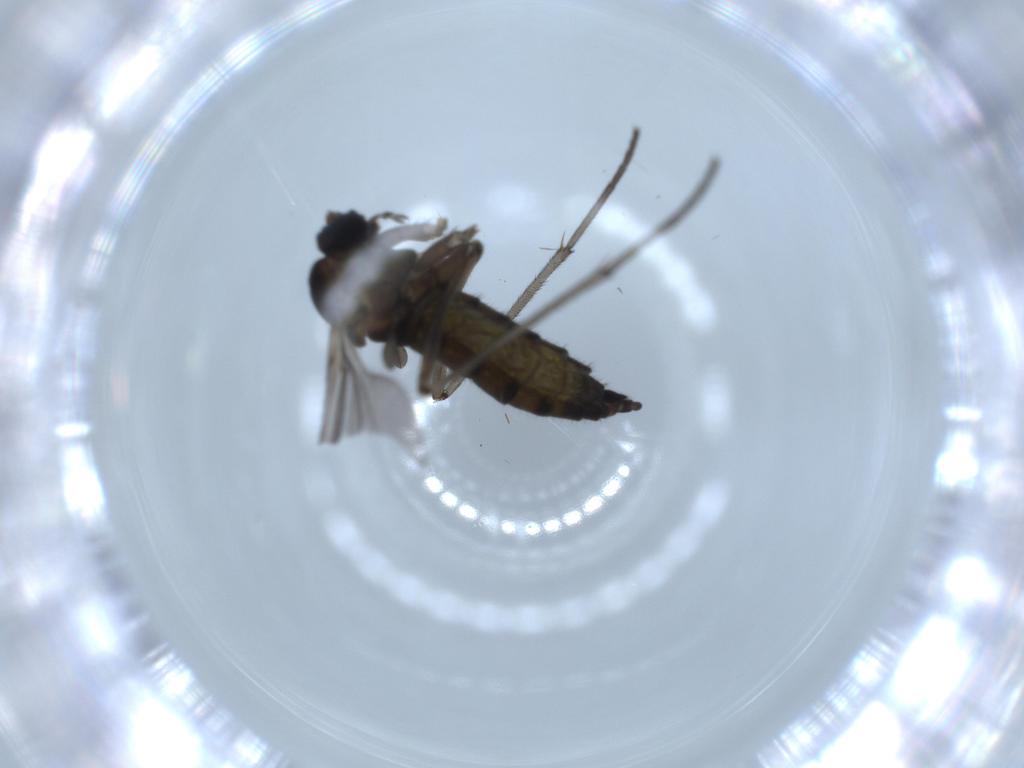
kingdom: Animalia
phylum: Arthropoda
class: Insecta
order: Diptera
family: Sciaridae
